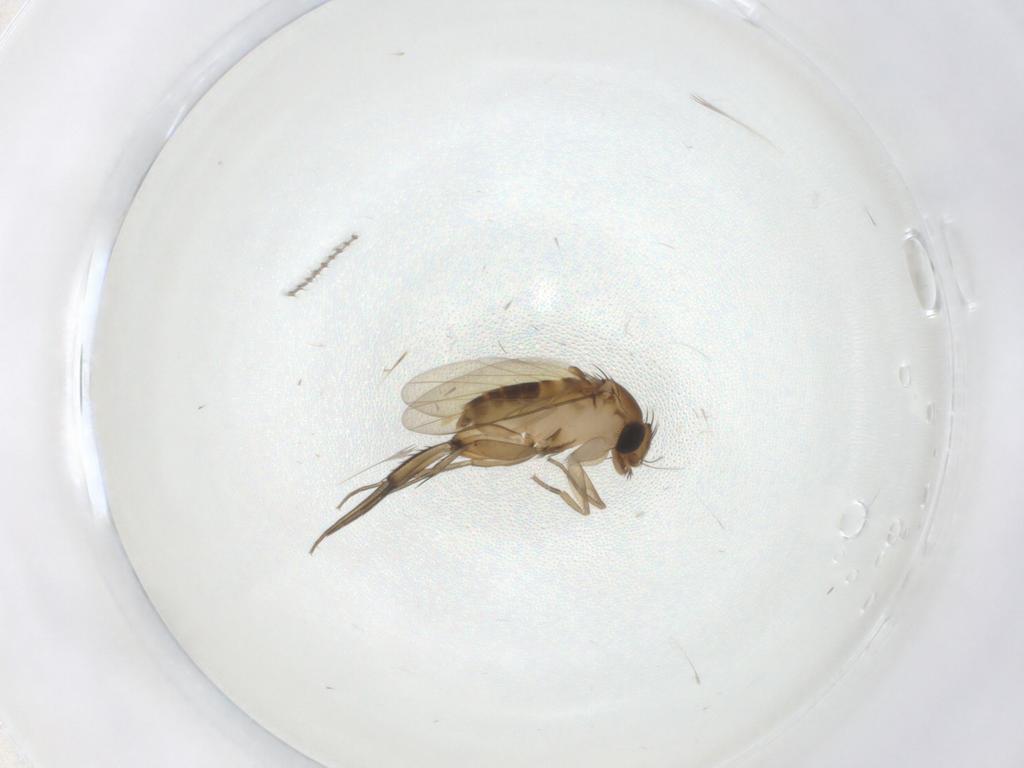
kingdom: Animalia
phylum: Arthropoda
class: Insecta
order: Diptera
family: Phoridae
